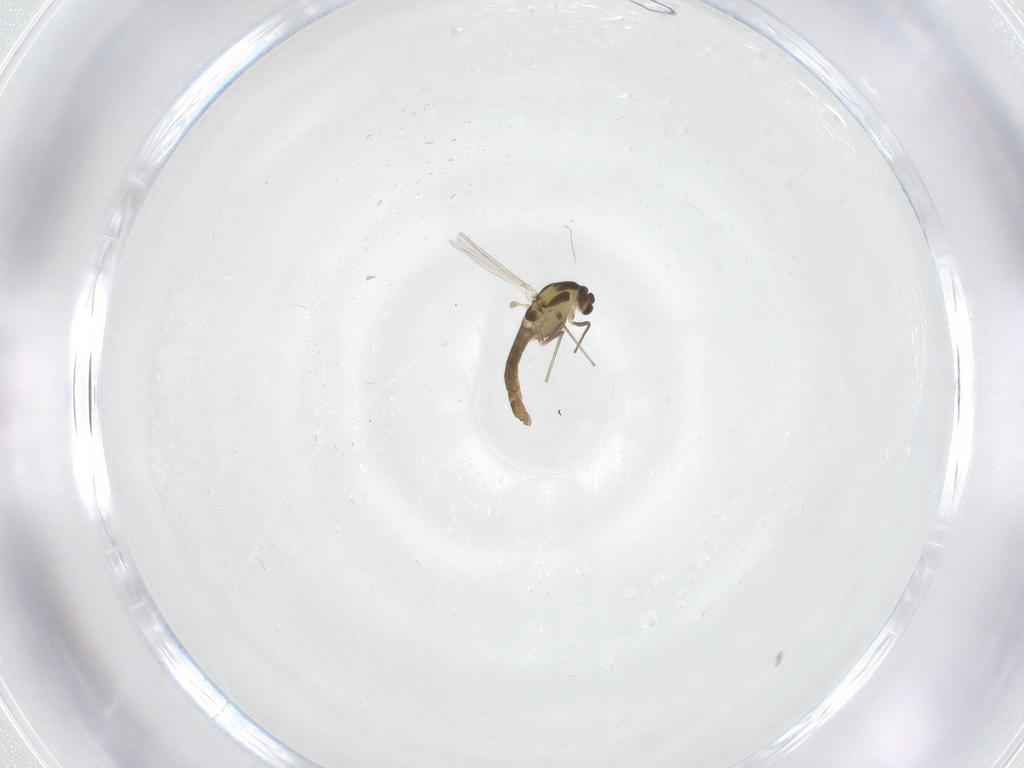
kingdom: Animalia
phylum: Arthropoda
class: Insecta
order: Diptera
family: Chironomidae
